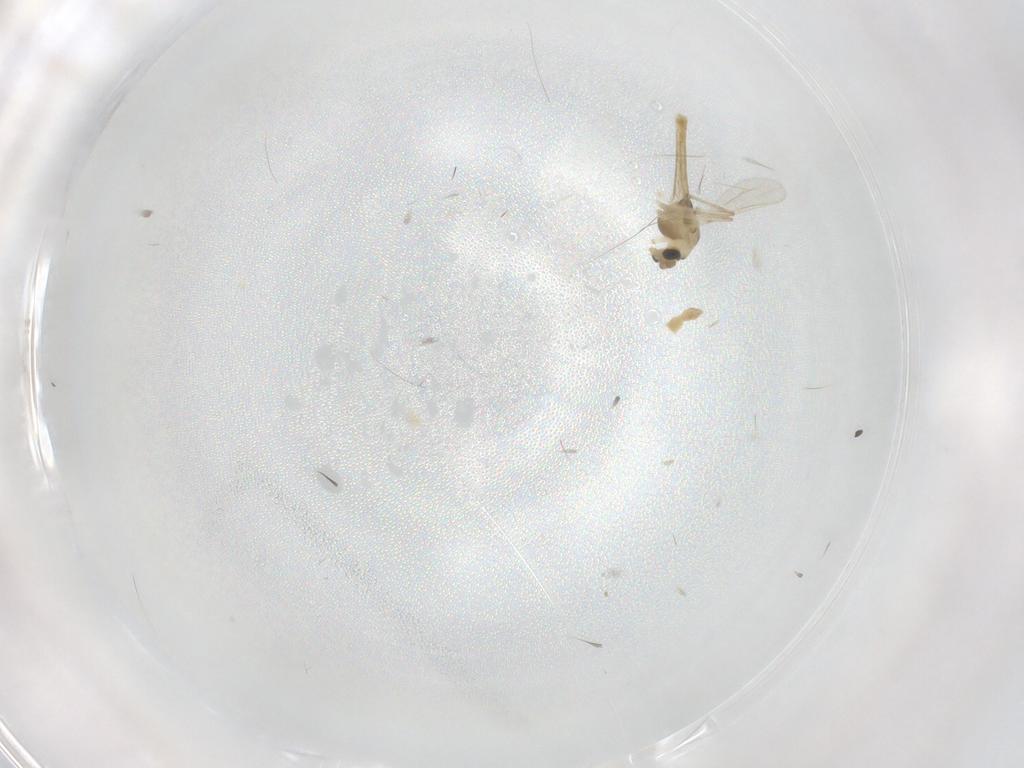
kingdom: Animalia
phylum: Arthropoda
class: Insecta
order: Diptera
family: Chironomidae
